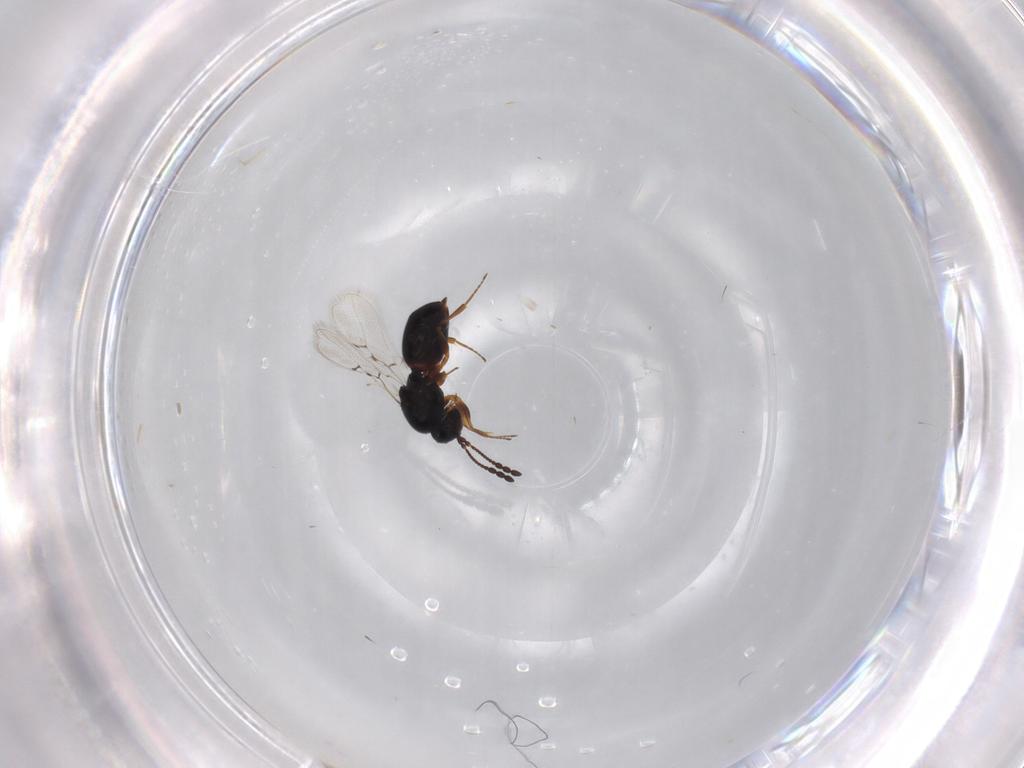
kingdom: Animalia
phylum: Arthropoda
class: Insecta
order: Hymenoptera
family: Figitidae
